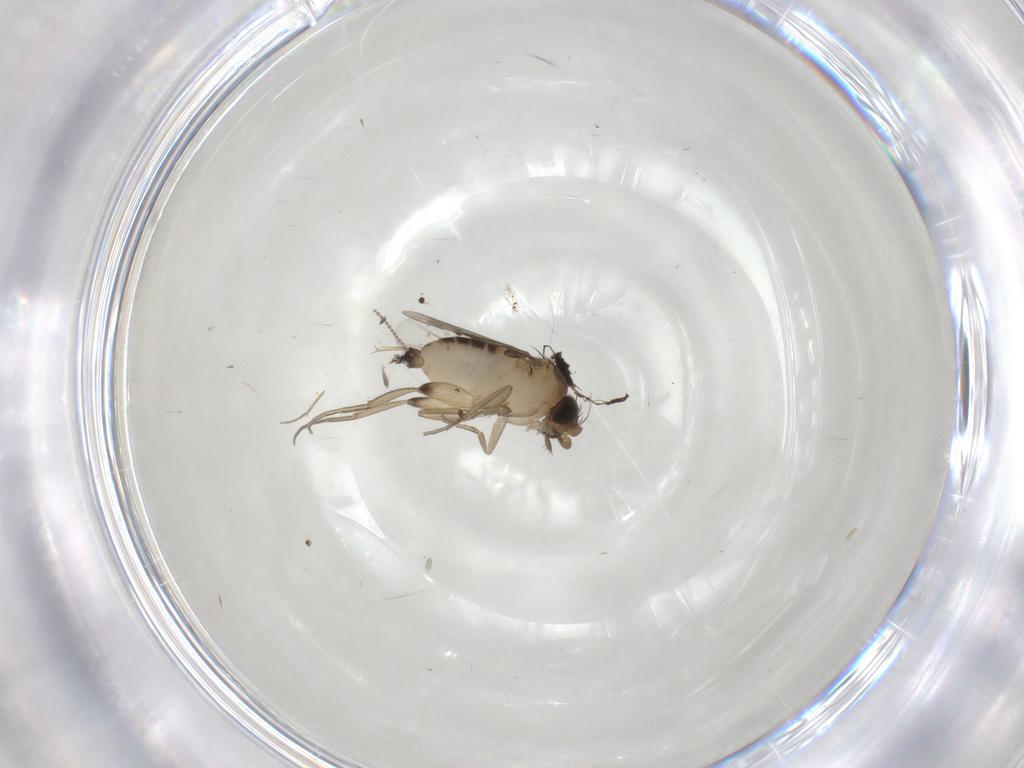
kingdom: Animalia
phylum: Arthropoda
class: Insecta
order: Diptera
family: Phoridae
